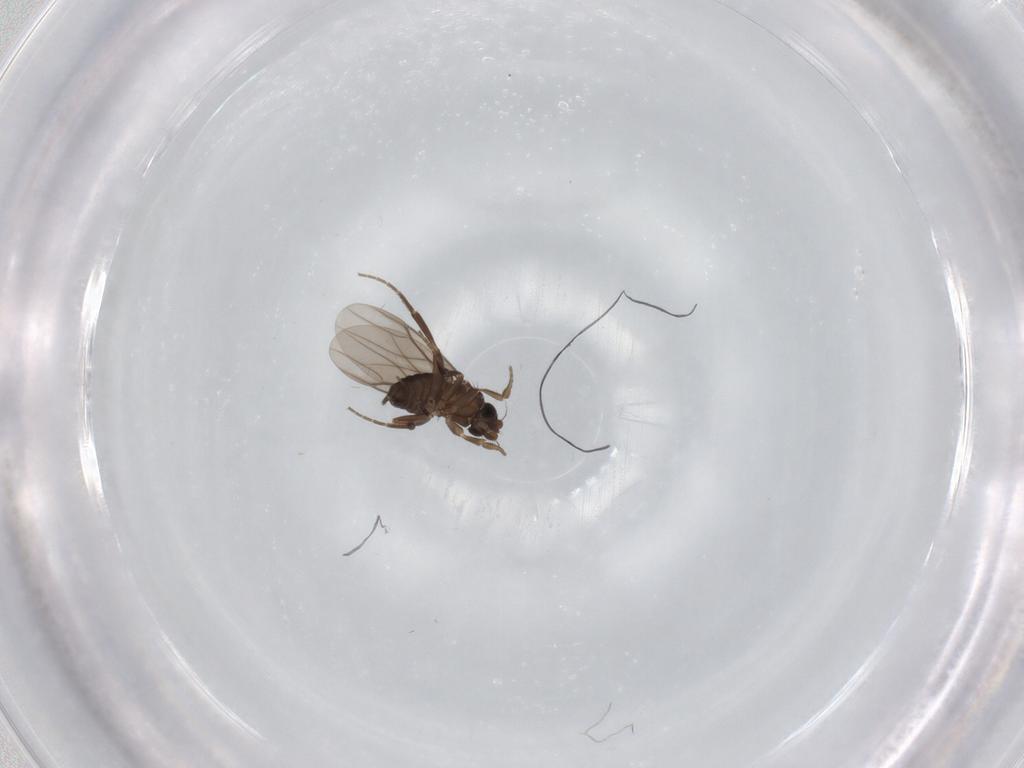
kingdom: Animalia
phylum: Arthropoda
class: Insecta
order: Diptera
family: Phoridae
